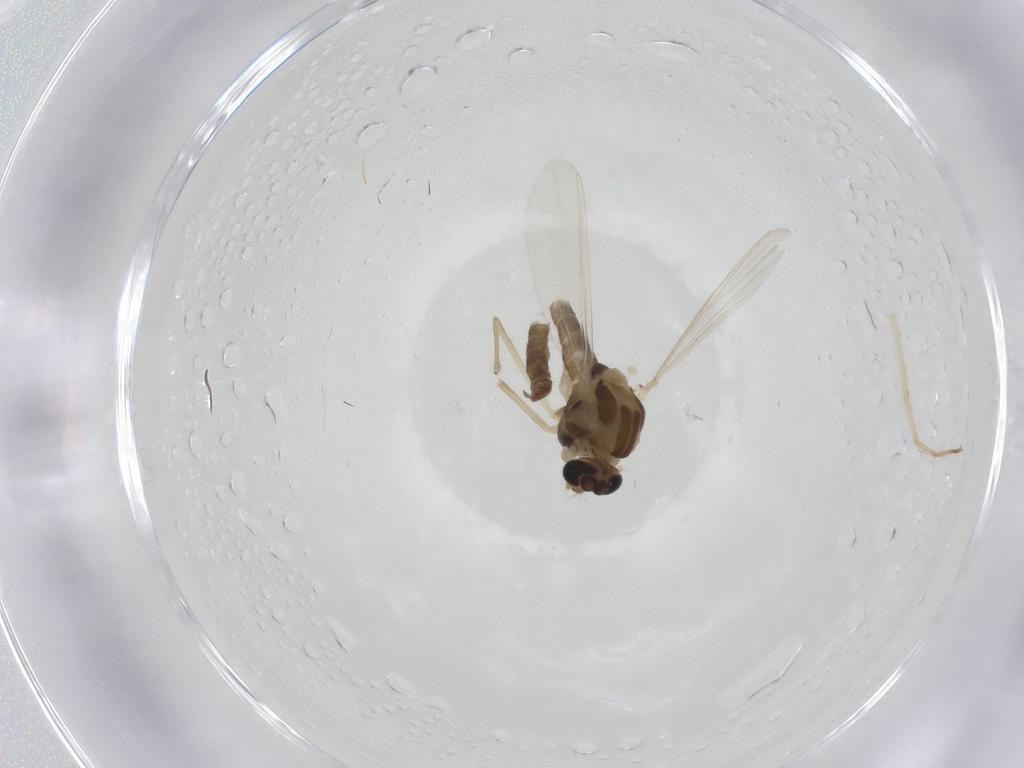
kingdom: Animalia
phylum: Arthropoda
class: Insecta
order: Diptera
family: Chironomidae
